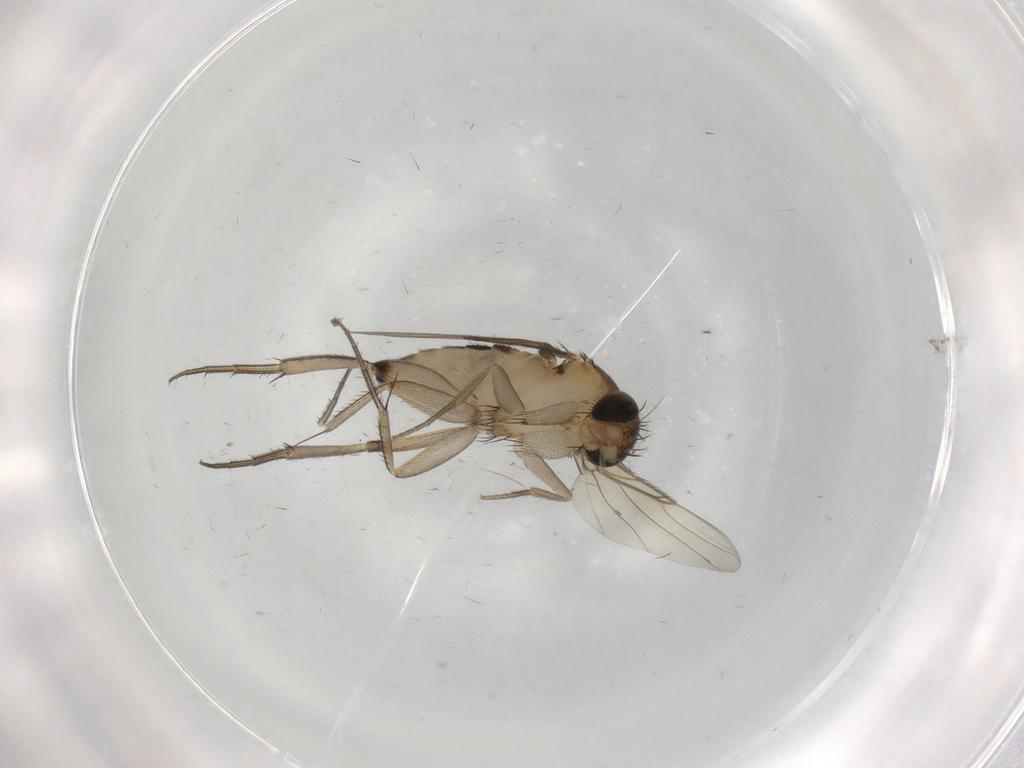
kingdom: Animalia
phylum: Arthropoda
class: Insecta
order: Diptera
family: Phoridae
